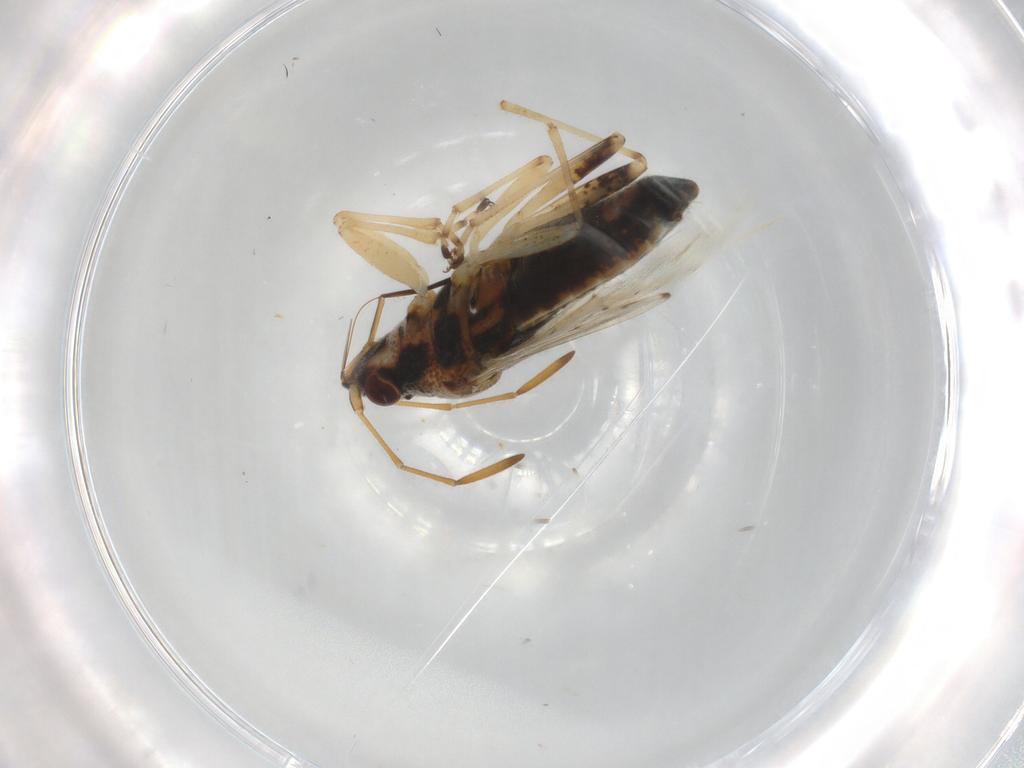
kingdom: Animalia
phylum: Arthropoda
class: Insecta
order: Hemiptera
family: Lygaeidae
